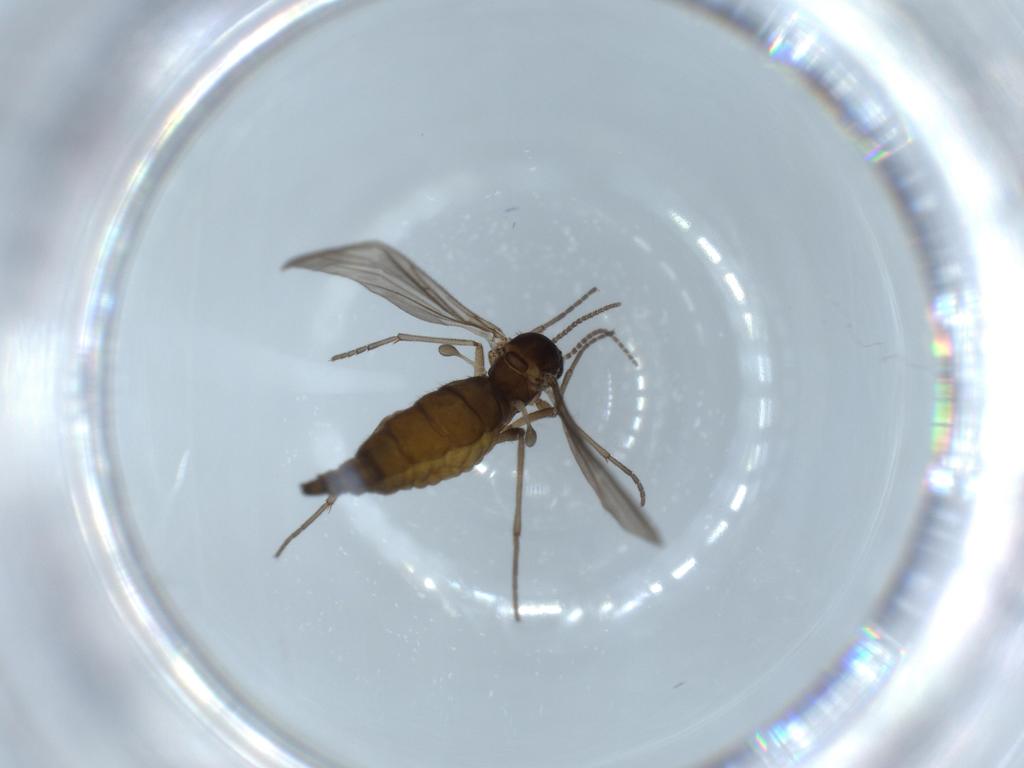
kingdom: Animalia
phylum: Arthropoda
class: Insecta
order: Diptera
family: Sciaridae
